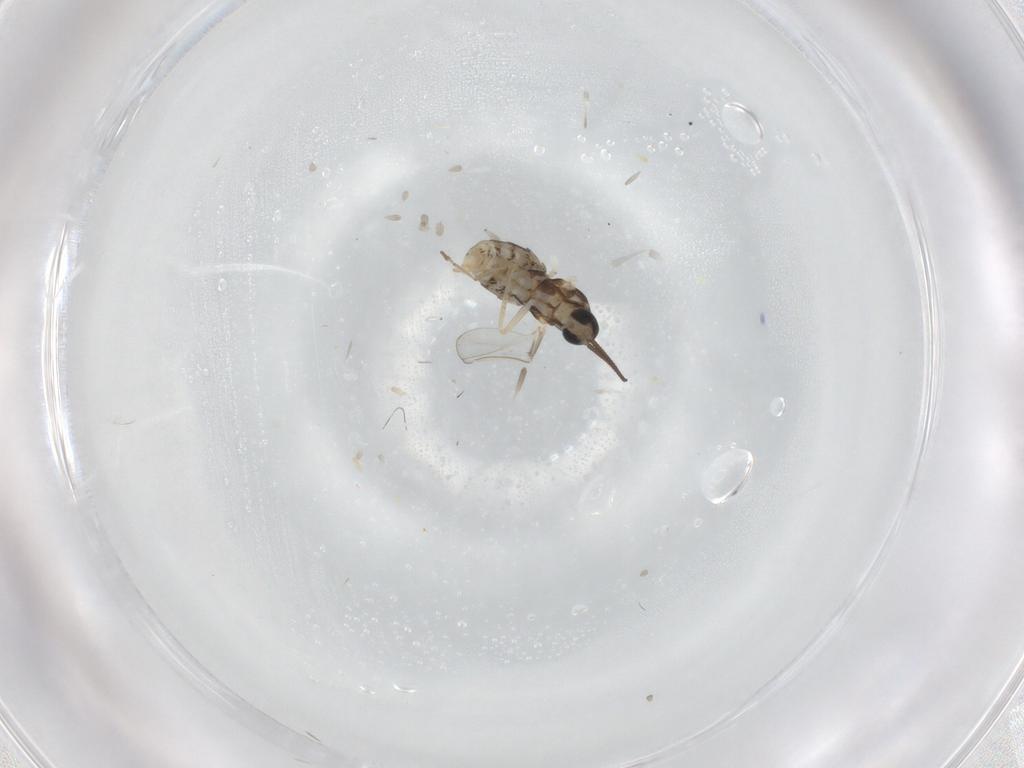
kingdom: Animalia
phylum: Arthropoda
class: Insecta
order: Diptera
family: Cecidomyiidae
